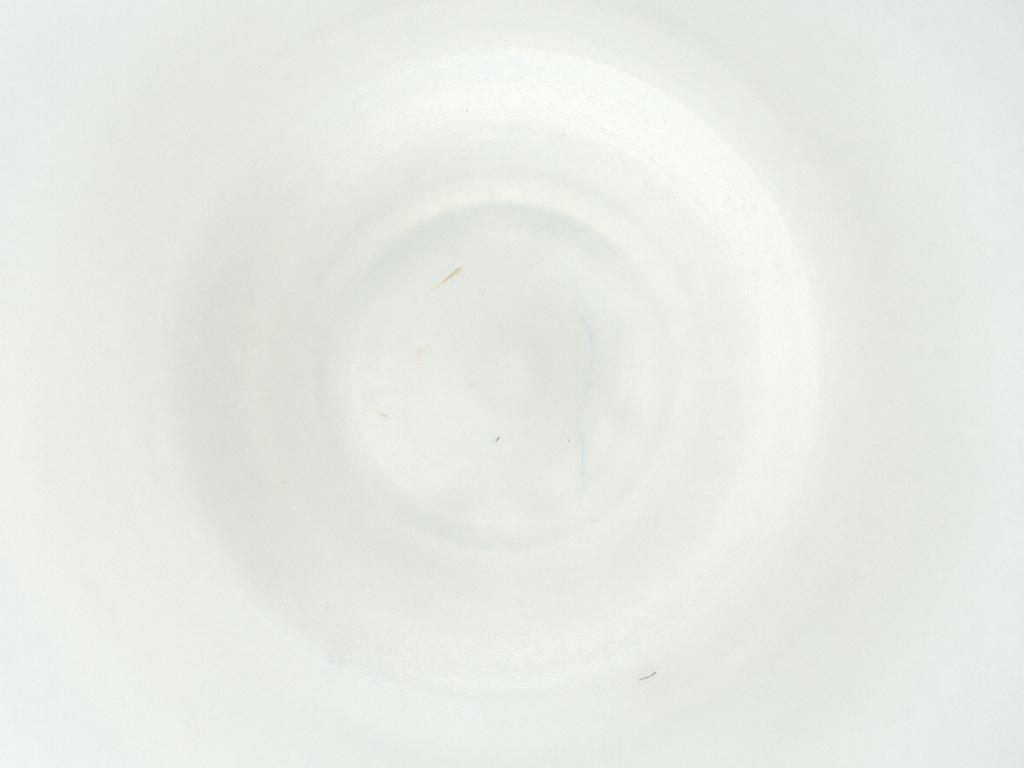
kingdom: Animalia
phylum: Arthropoda
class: Insecta
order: Diptera
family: Cecidomyiidae
